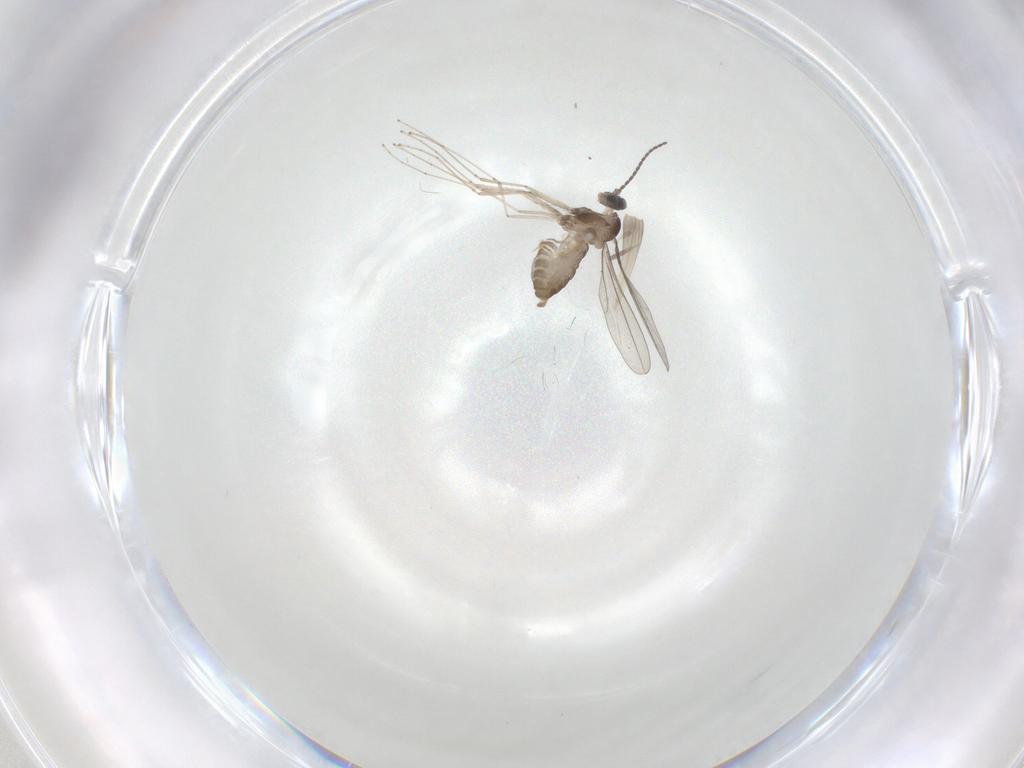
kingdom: Animalia
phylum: Arthropoda
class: Insecta
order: Diptera
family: Cecidomyiidae
